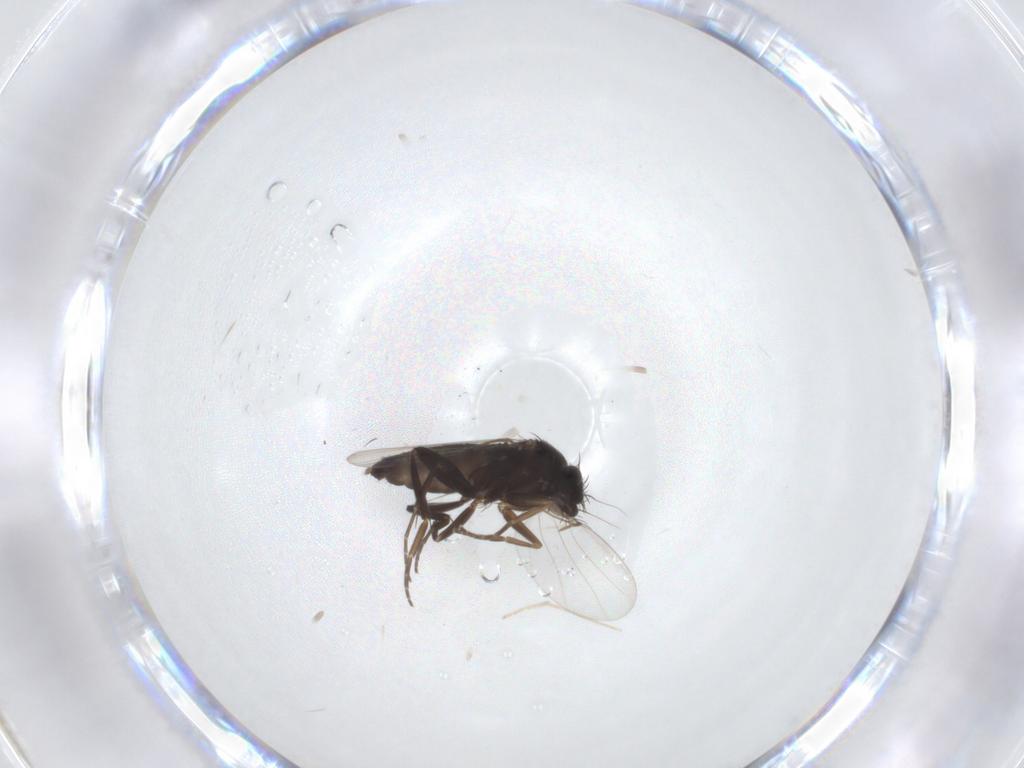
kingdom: Animalia
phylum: Arthropoda
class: Insecta
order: Diptera
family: Phoridae
